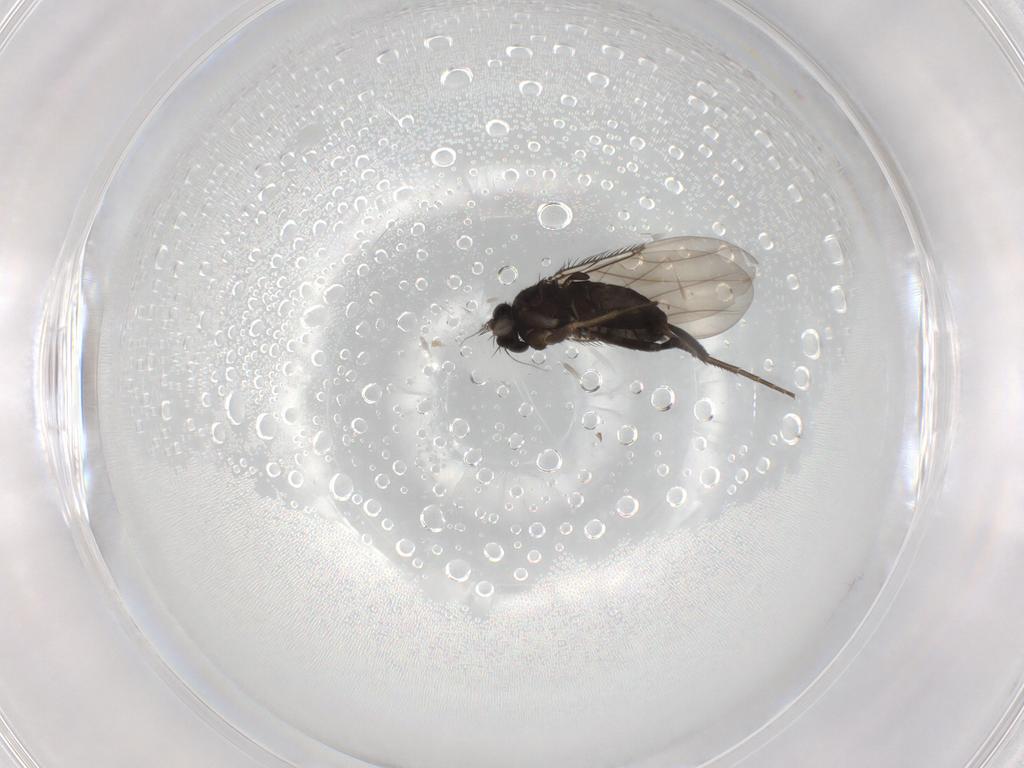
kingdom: Animalia
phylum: Arthropoda
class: Insecta
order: Diptera
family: Phoridae
